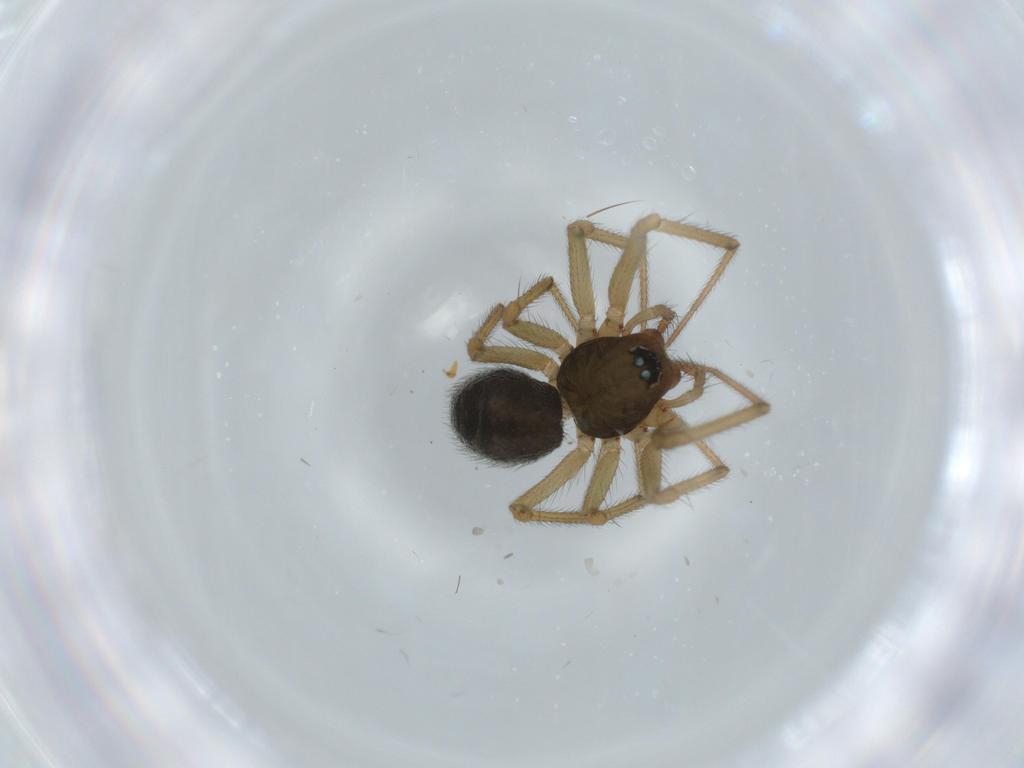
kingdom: Animalia
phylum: Arthropoda
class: Arachnida
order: Araneae
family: Linyphiidae
